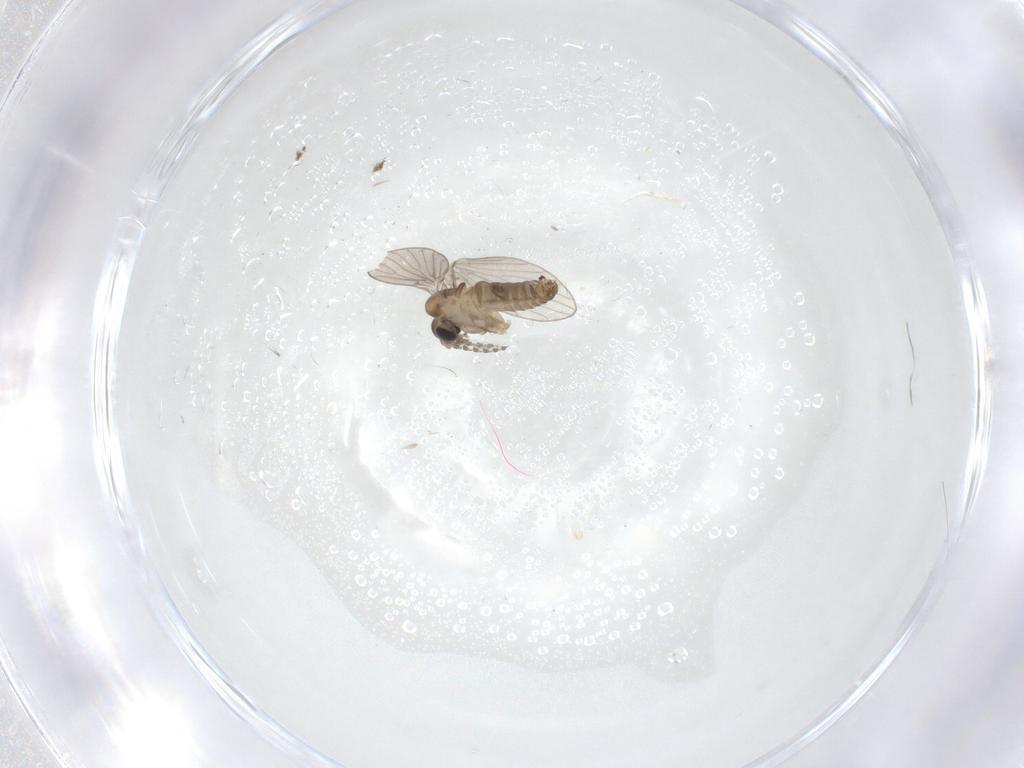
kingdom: Animalia
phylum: Arthropoda
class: Insecta
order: Diptera
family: Psychodidae
